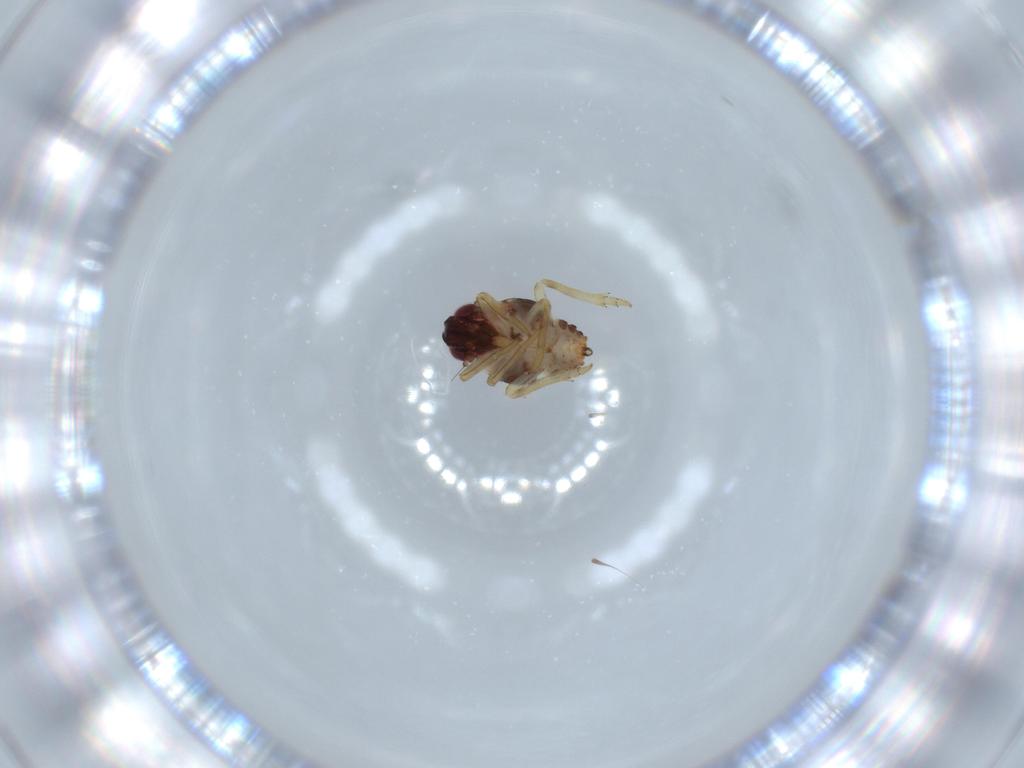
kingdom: Animalia
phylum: Arthropoda
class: Insecta
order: Hemiptera
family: Issidae
